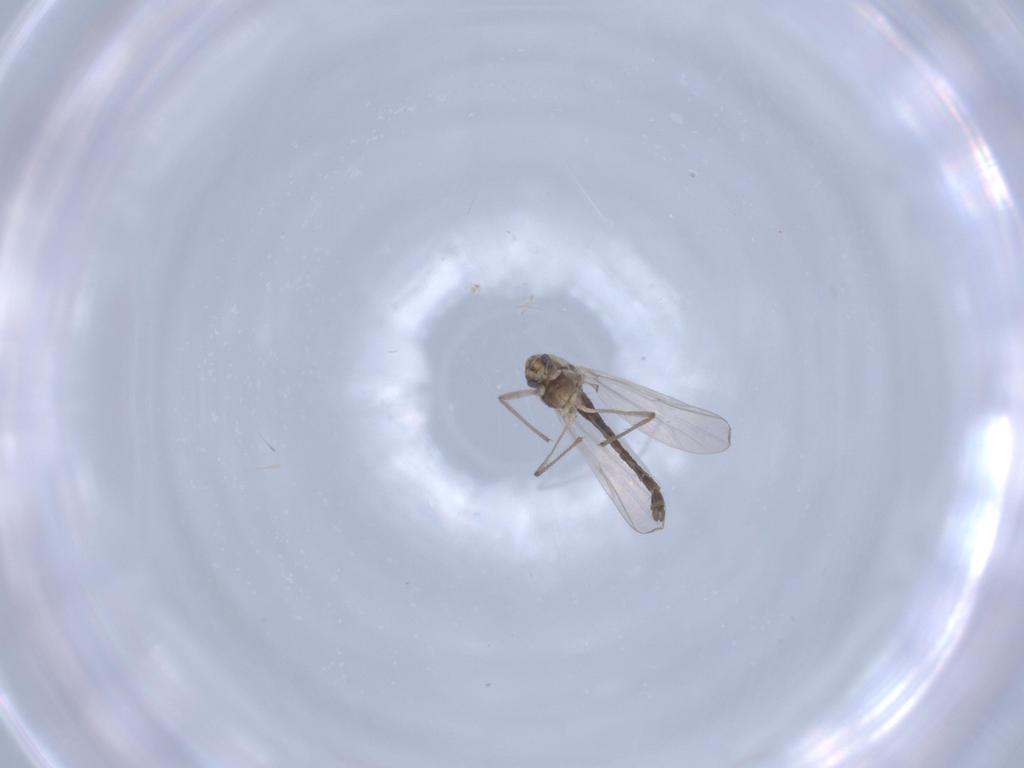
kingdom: Animalia
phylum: Arthropoda
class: Insecta
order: Diptera
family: Chironomidae
